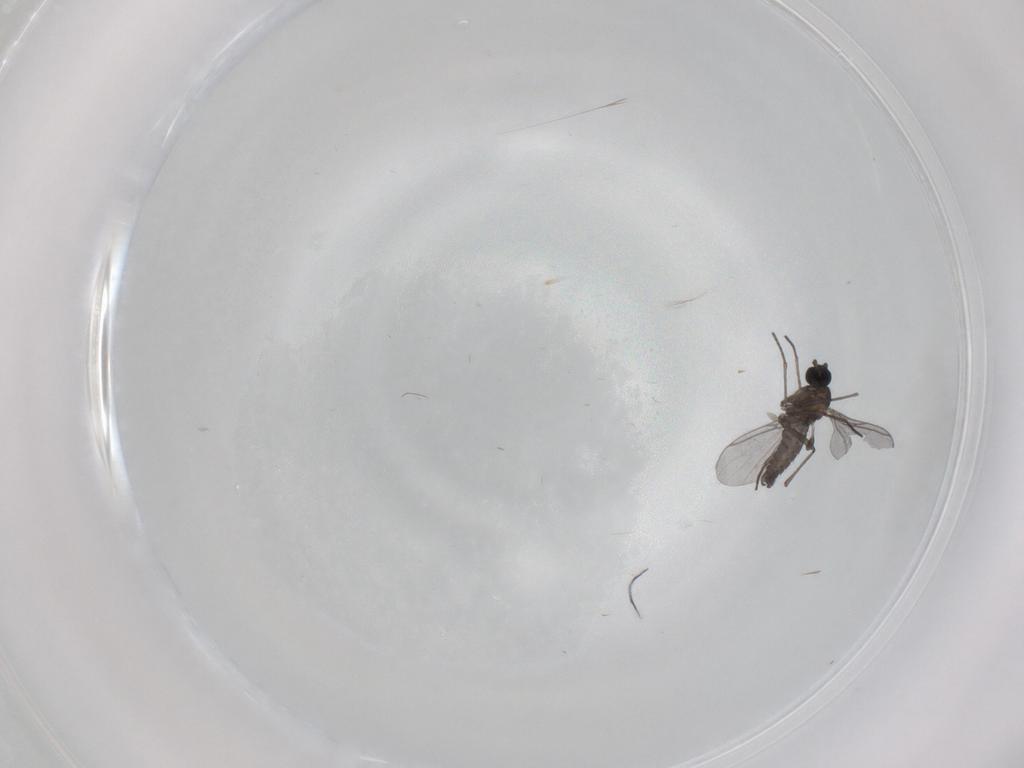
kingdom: Animalia
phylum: Arthropoda
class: Insecta
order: Diptera
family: Cecidomyiidae
